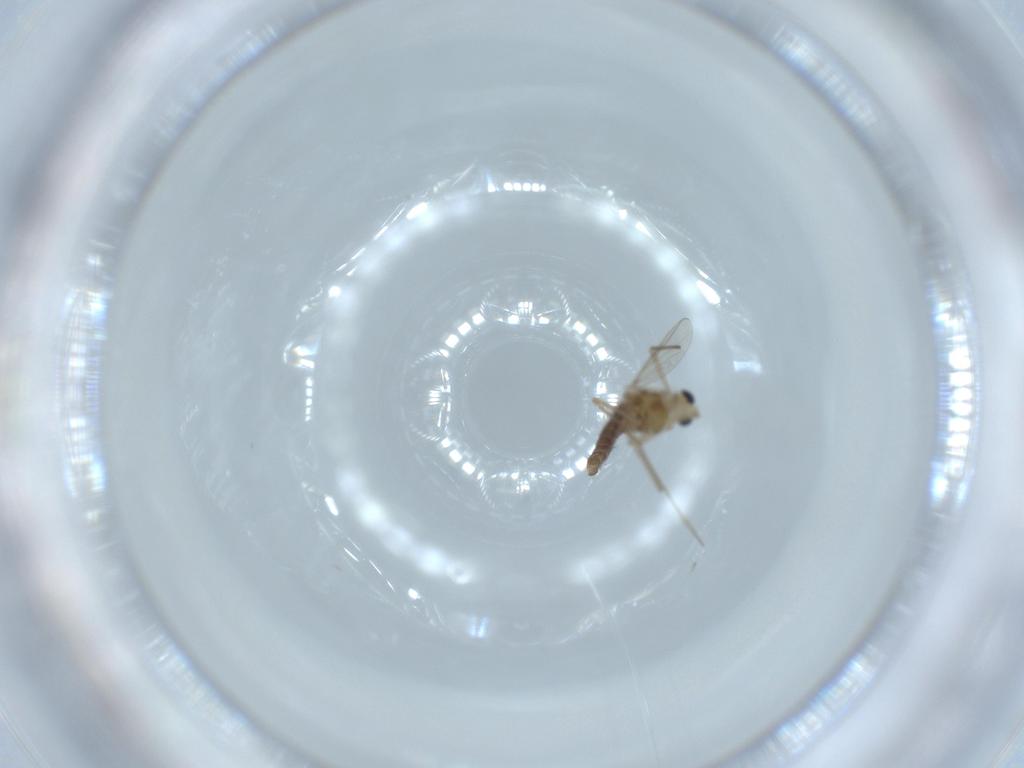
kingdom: Animalia
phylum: Arthropoda
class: Insecta
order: Diptera
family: Chironomidae
